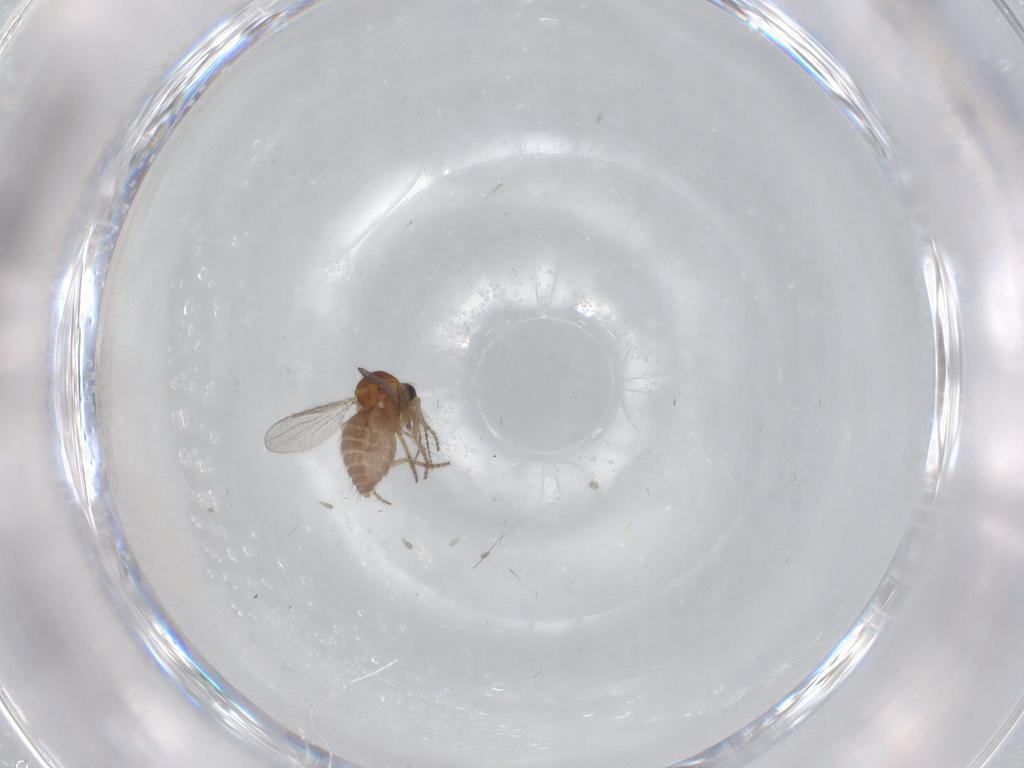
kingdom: Animalia
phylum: Arthropoda
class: Insecta
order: Diptera
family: Ceratopogonidae
